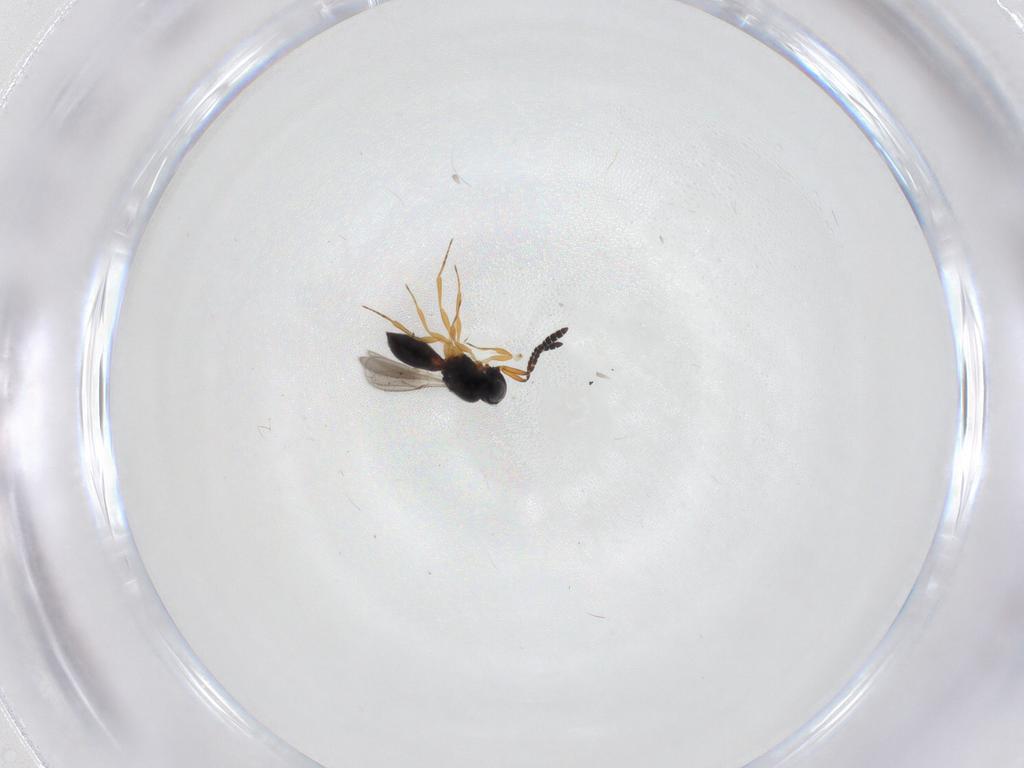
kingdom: Animalia
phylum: Arthropoda
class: Insecta
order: Hymenoptera
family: Scelionidae
